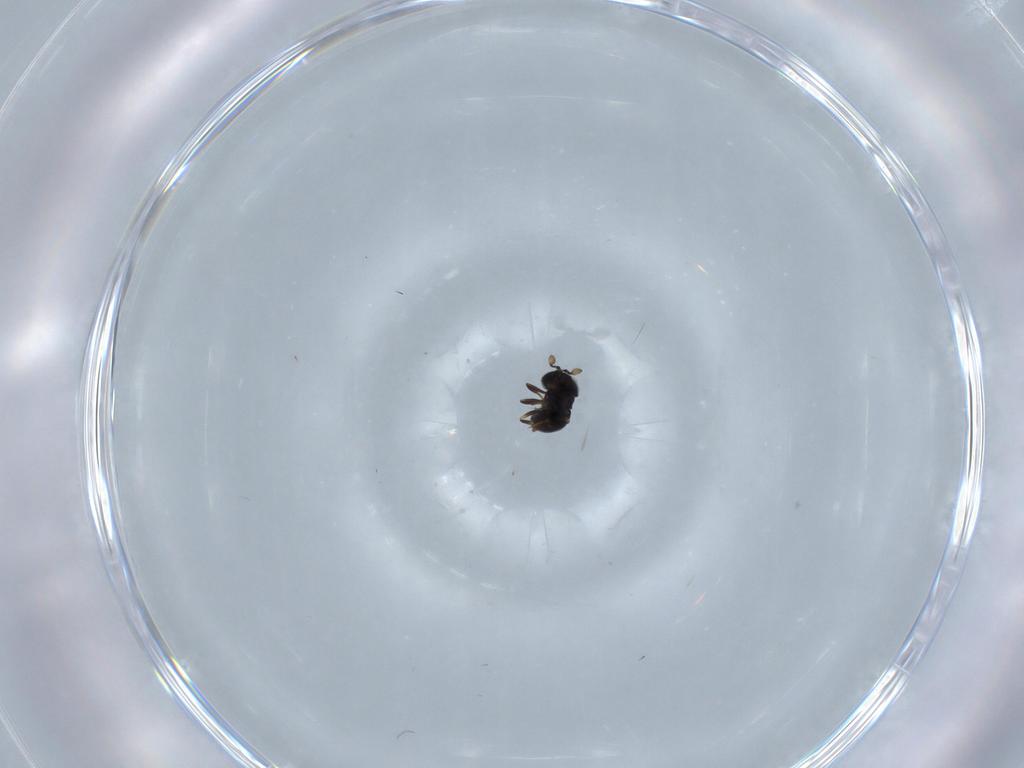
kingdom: Animalia
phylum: Arthropoda
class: Insecta
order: Hymenoptera
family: Scelionidae
